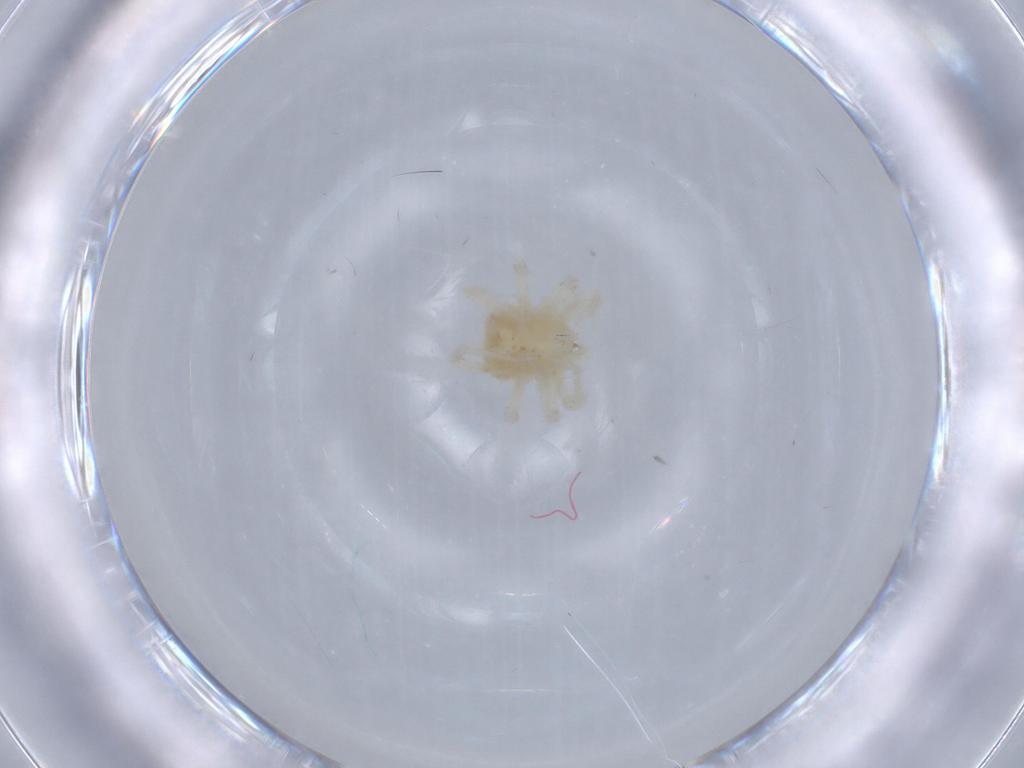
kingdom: Animalia
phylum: Arthropoda
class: Arachnida
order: Trombidiformes
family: Anystidae
